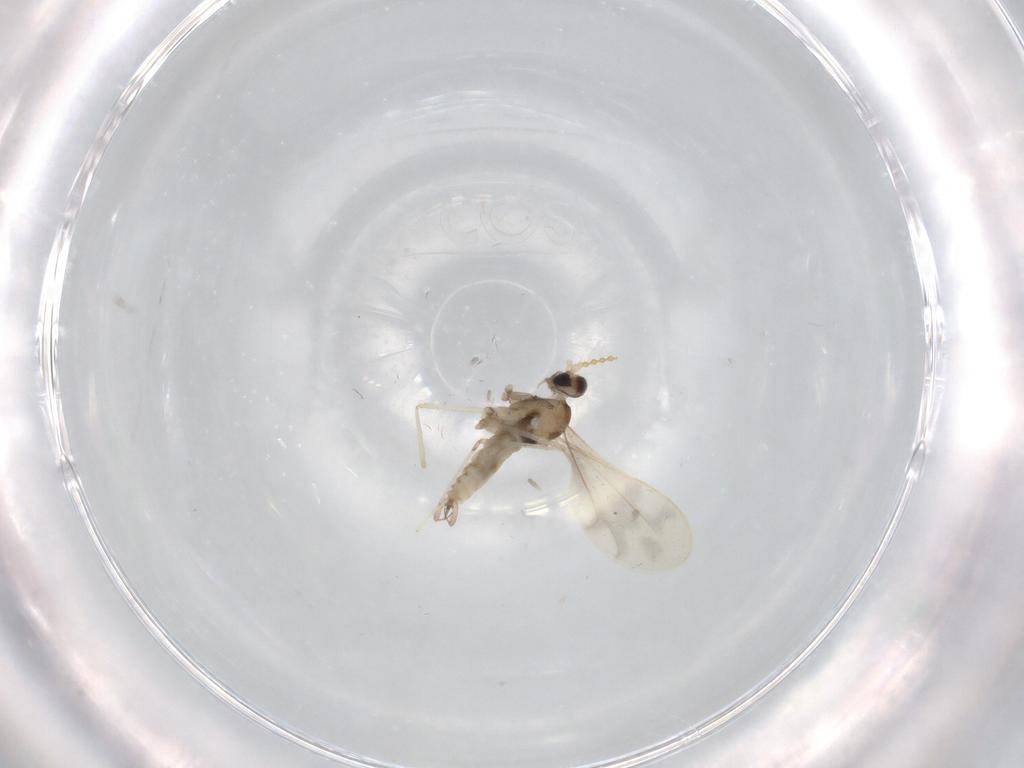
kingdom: Animalia
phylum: Arthropoda
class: Insecta
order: Diptera
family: Cecidomyiidae
